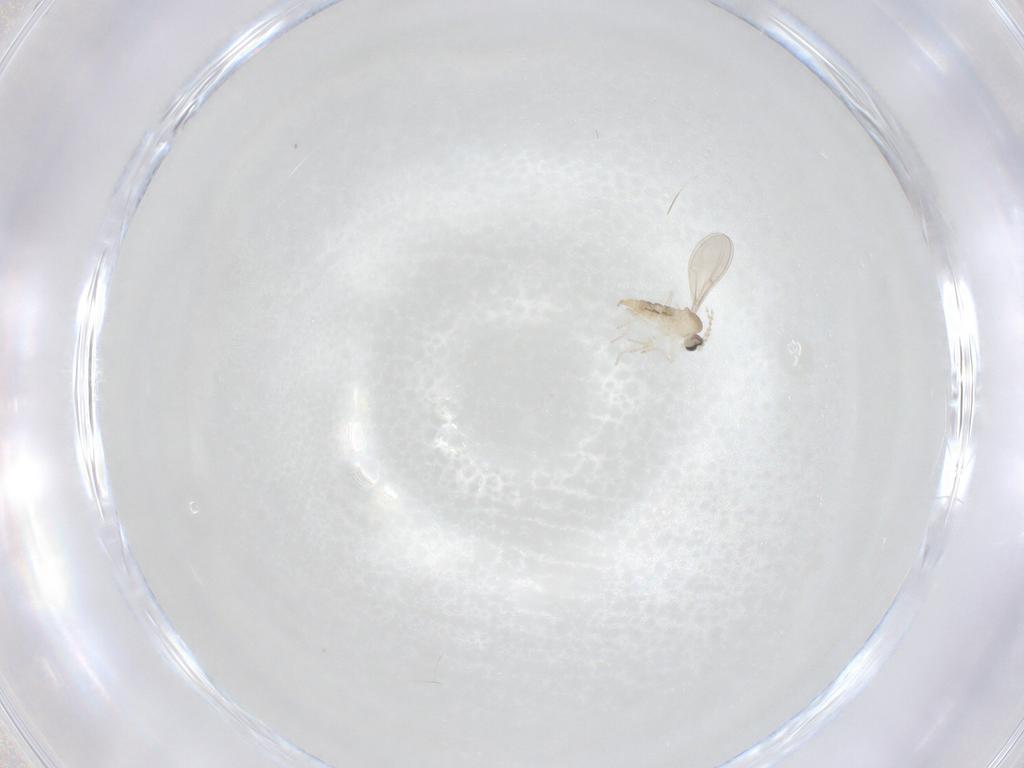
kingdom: Animalia
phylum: Arthropoda
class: Insecta
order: Diptera
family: Cecidomyiidae
